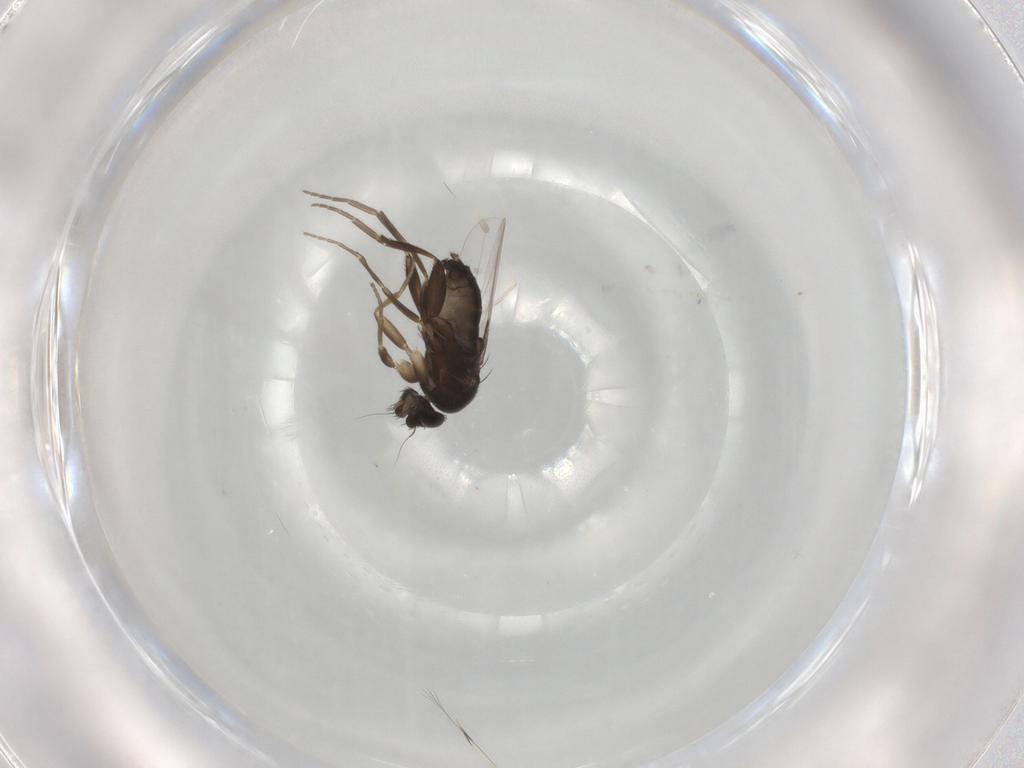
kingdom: Animalia
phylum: Arthropoda
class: Insecta
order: Diptera
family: Phoridae
